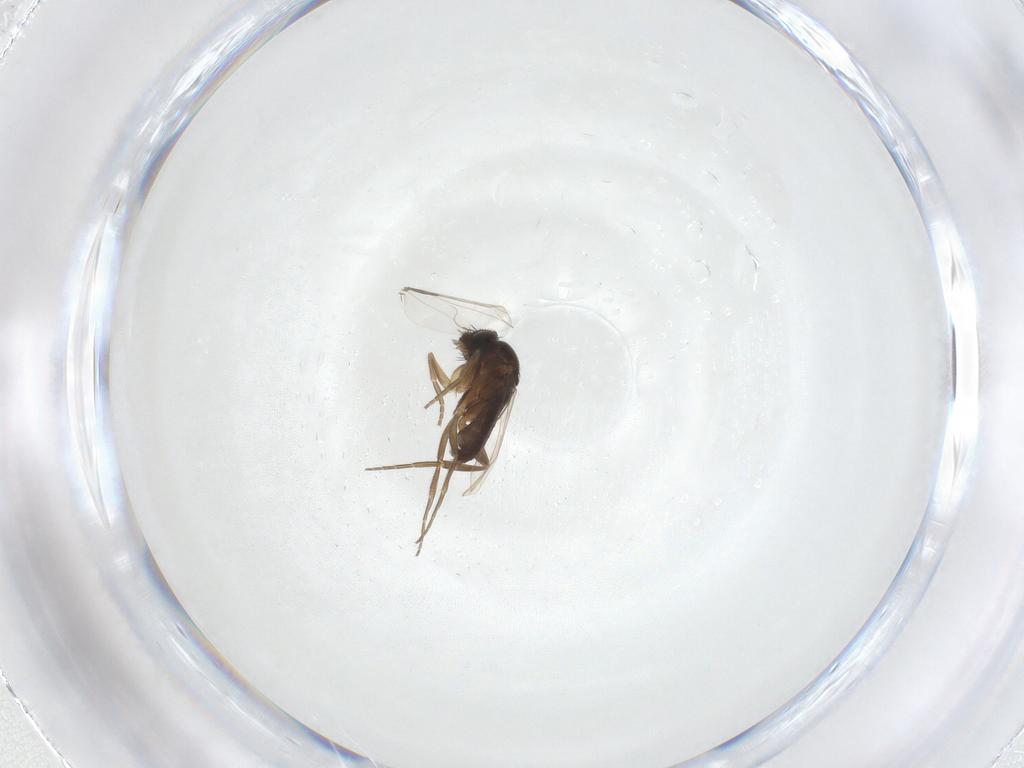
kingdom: Animalia
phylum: Arthropoda
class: Insecta
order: Diptera
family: Phoridae
